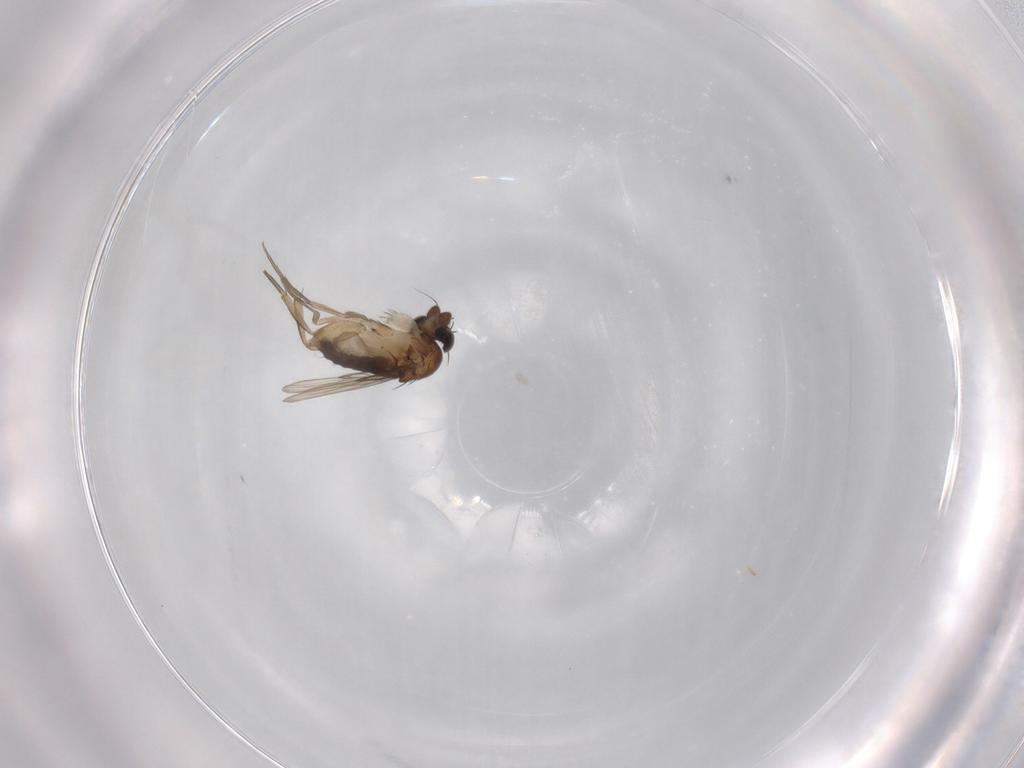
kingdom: Animalia
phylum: Arthropoda
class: Insecta
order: Diptera
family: Phoridae
